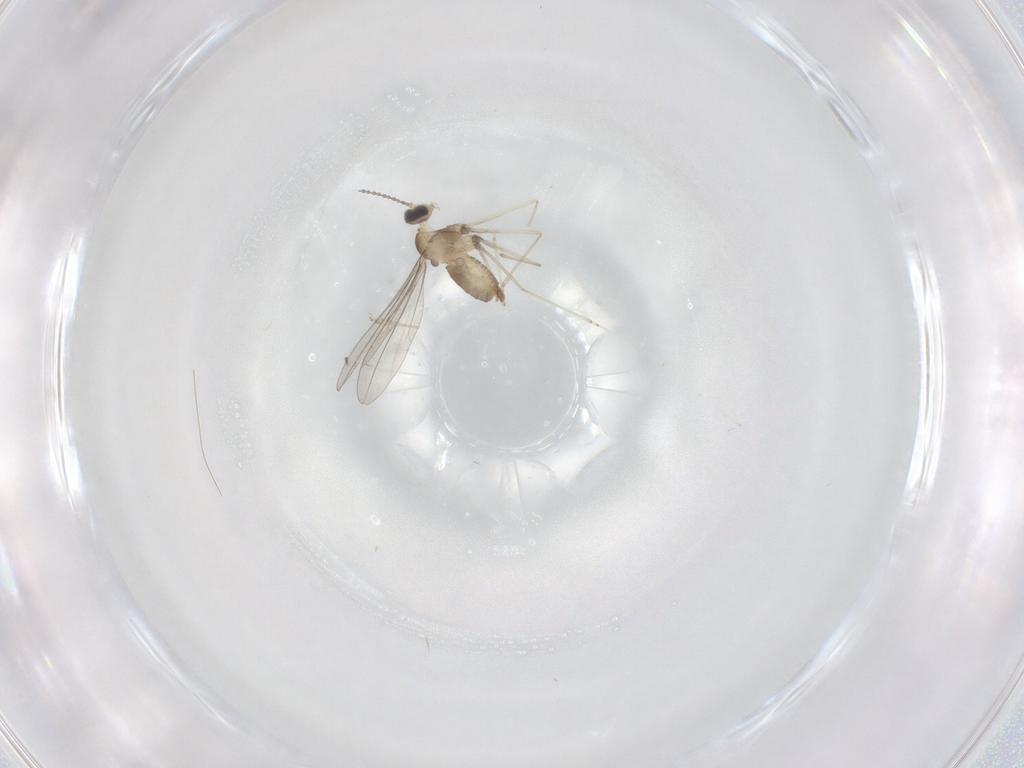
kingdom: Animalia
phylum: Arthropoda
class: Insecta
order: Diptera
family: Cecidomyiidae
